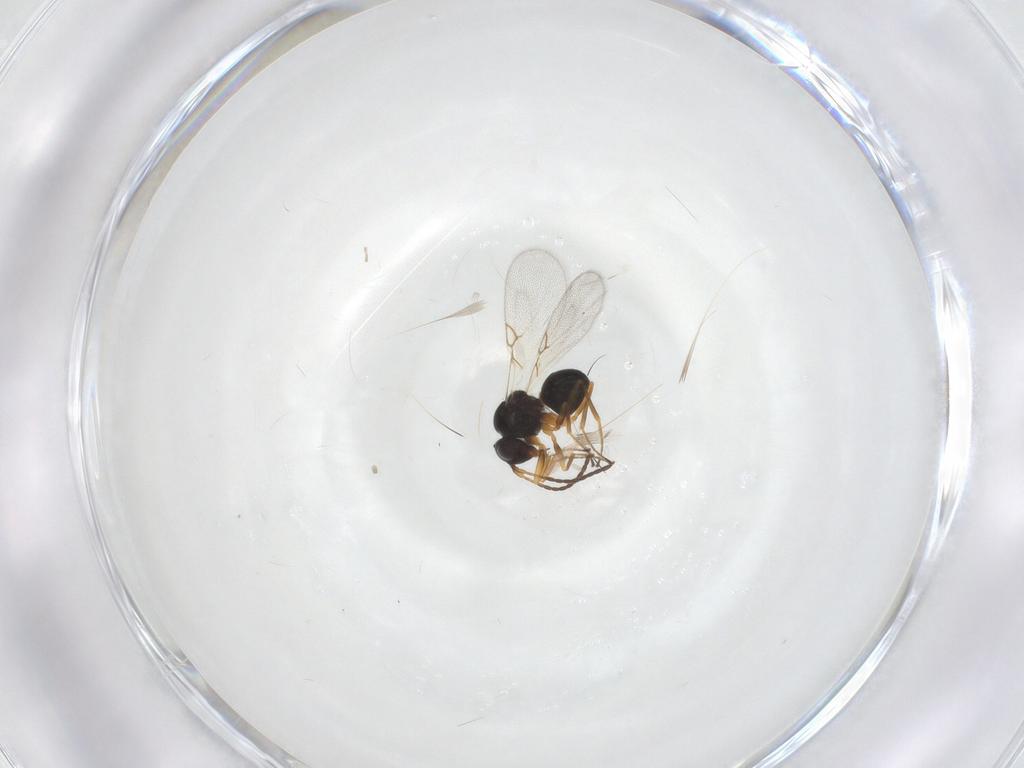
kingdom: Animalia
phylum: Arthropoda
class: Insecta
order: Hymenoptera
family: Figitidae
